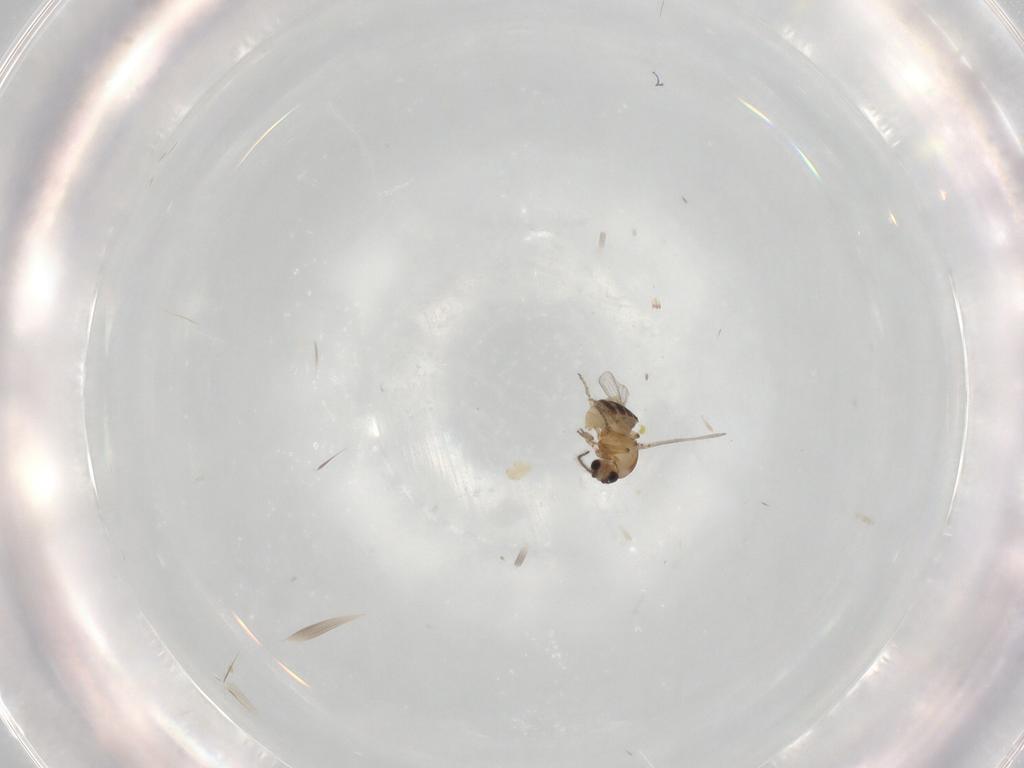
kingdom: Animalia
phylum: Arthropoda
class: Insecta
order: Diptera
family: Ceratopogonidae
